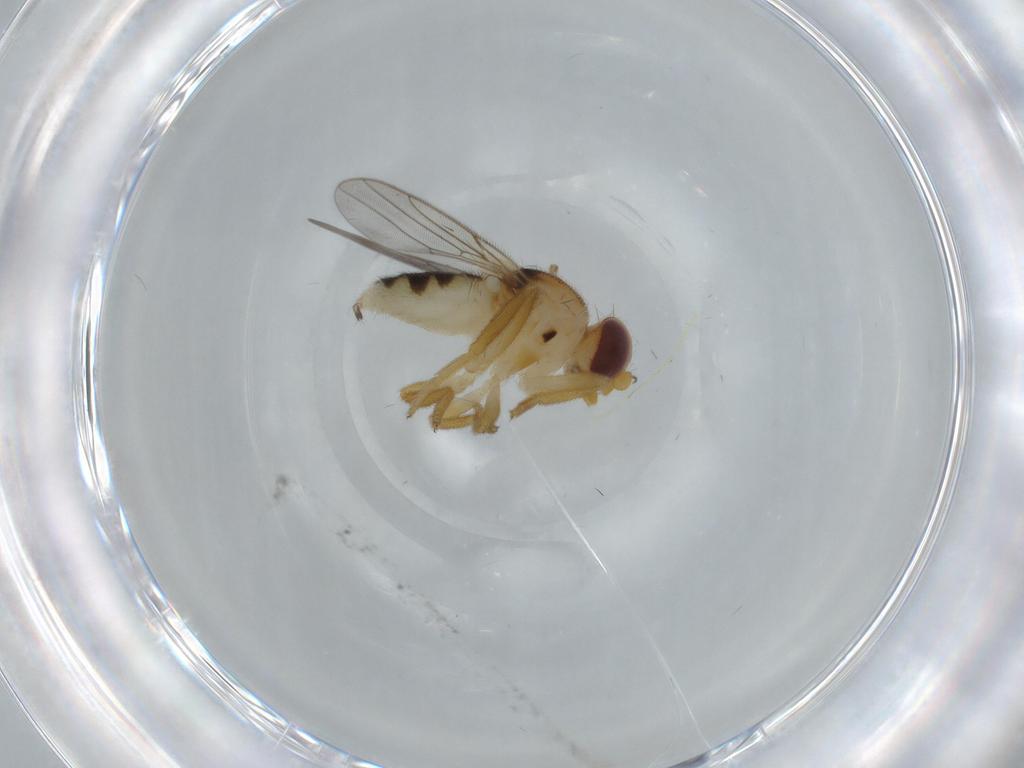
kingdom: Animalia
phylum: Arthropoda
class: Insecta
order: Diptera
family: Chloropidae
